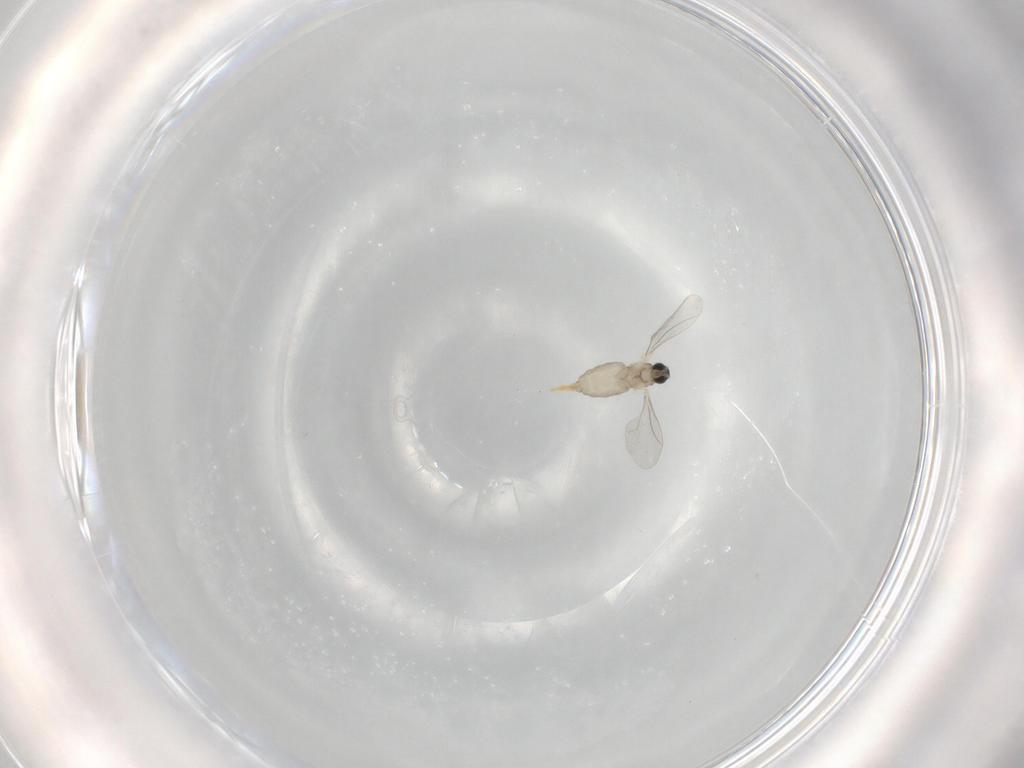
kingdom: Animalia
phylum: Arthropoda
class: Insecta
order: Diptera
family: Cecidomyiidae
